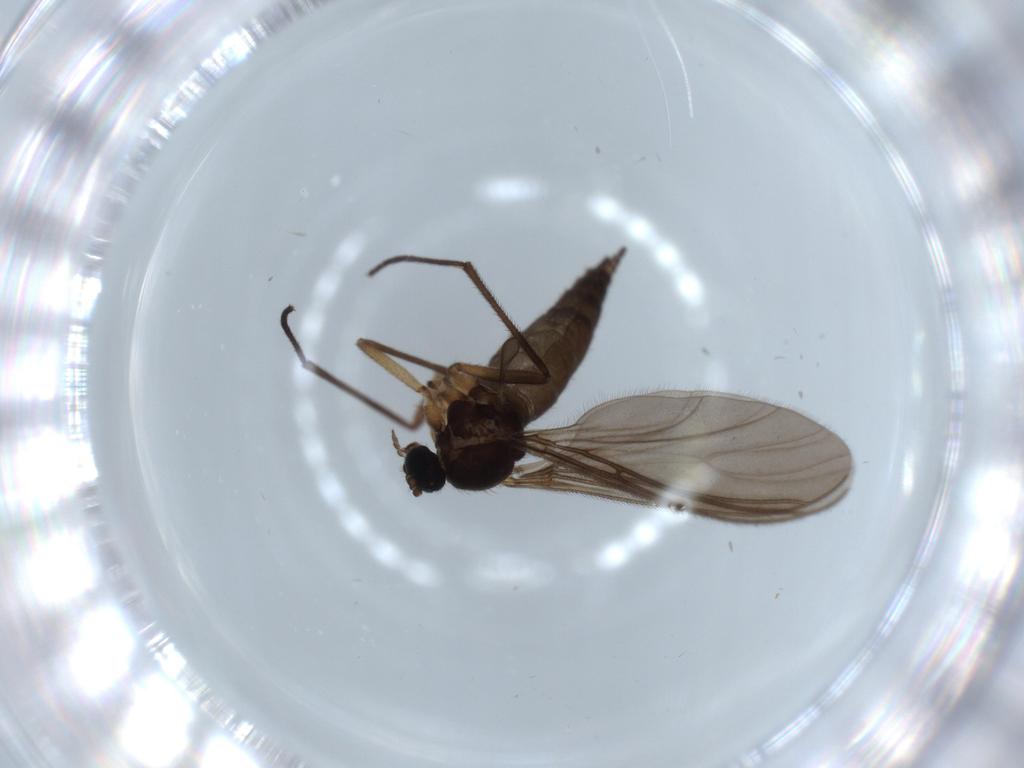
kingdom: Animalia
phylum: Arthropoda
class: Insecta
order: Diptera
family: Sciaridae
